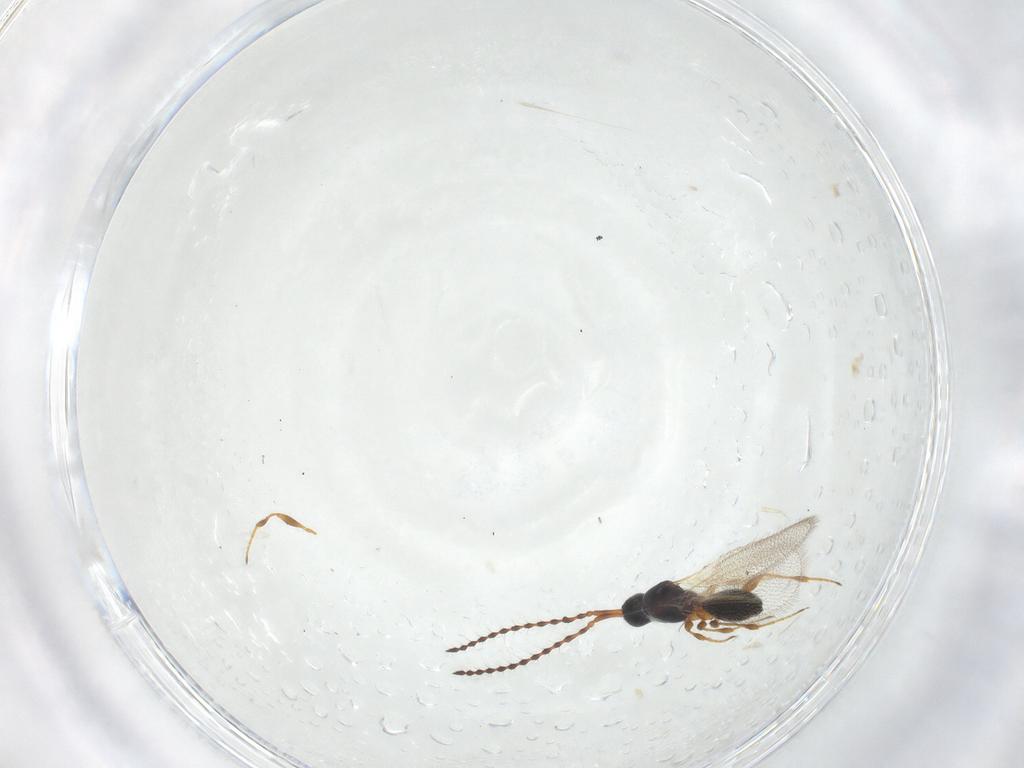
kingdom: Animalia
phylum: Arthropoda
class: Insecta
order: Hymenoptera
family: Diapriidae
